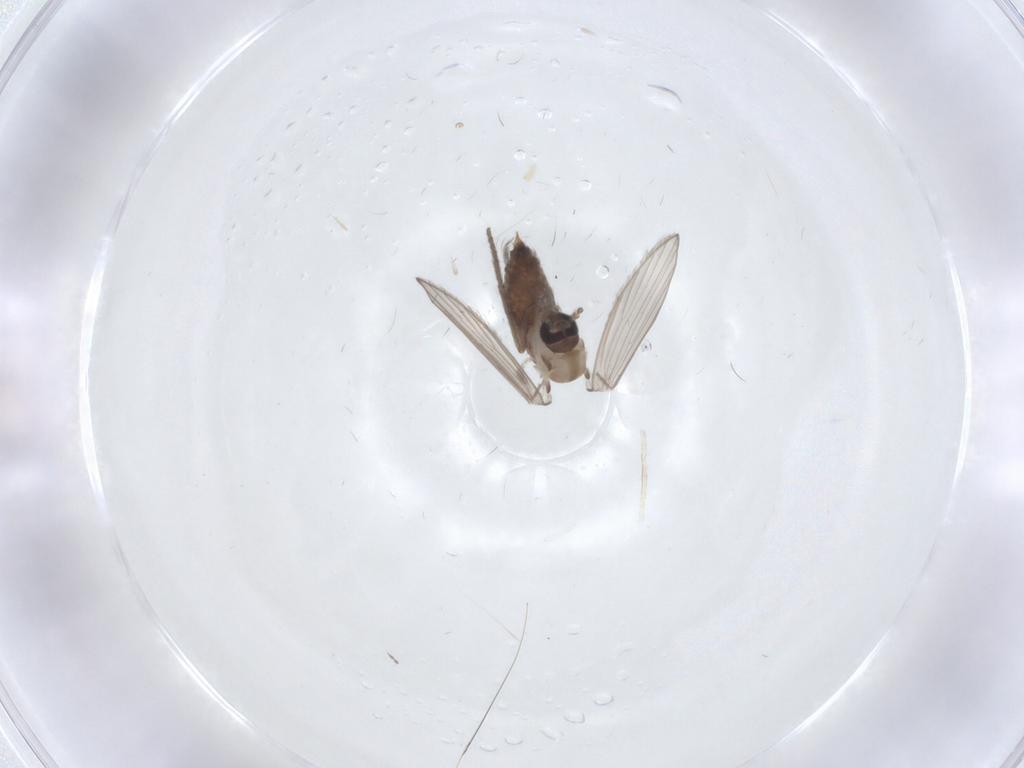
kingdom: Animalia
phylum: Arthropoda
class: Insecta
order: Diptera
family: Psychodidae
